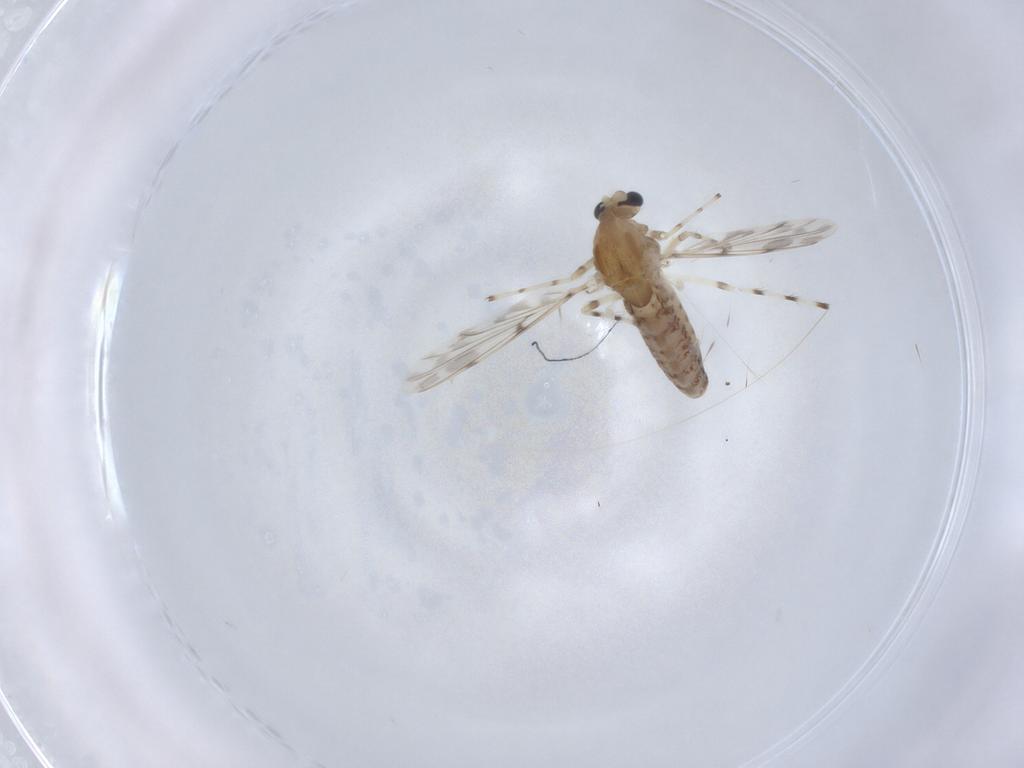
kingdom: Animalia
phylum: Arthropoda
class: Insecta
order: Diptera
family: Chironomidae
